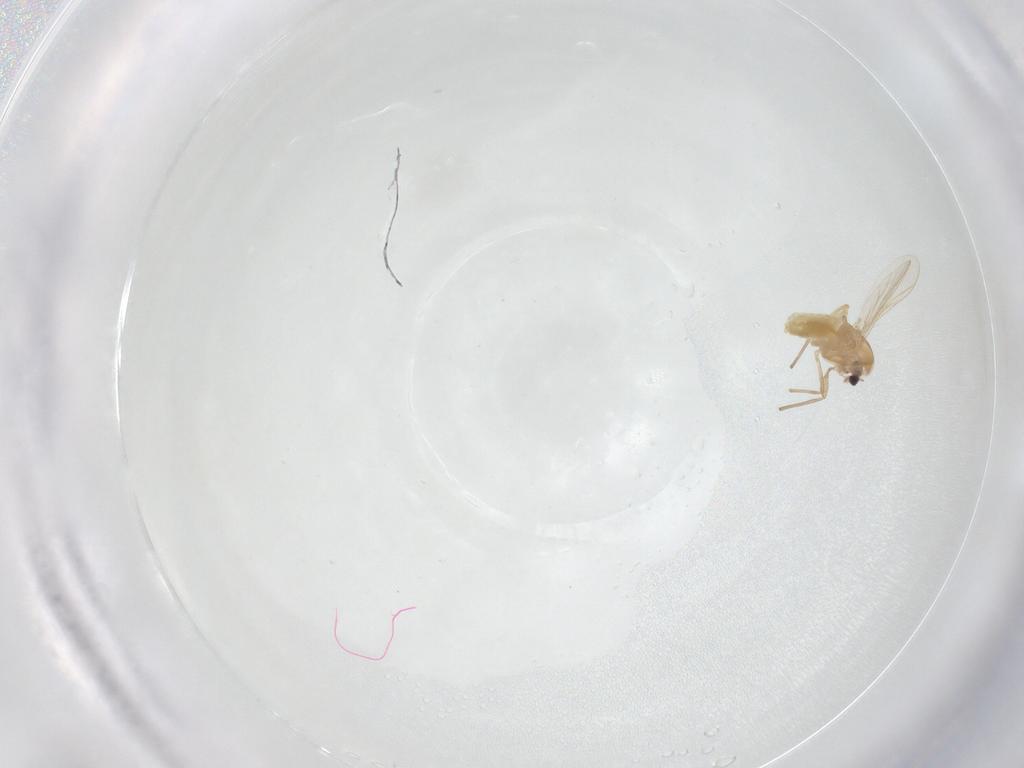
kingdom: Animalia
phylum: Arthropoda
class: Insecta
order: Diptera
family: Chironomidae
